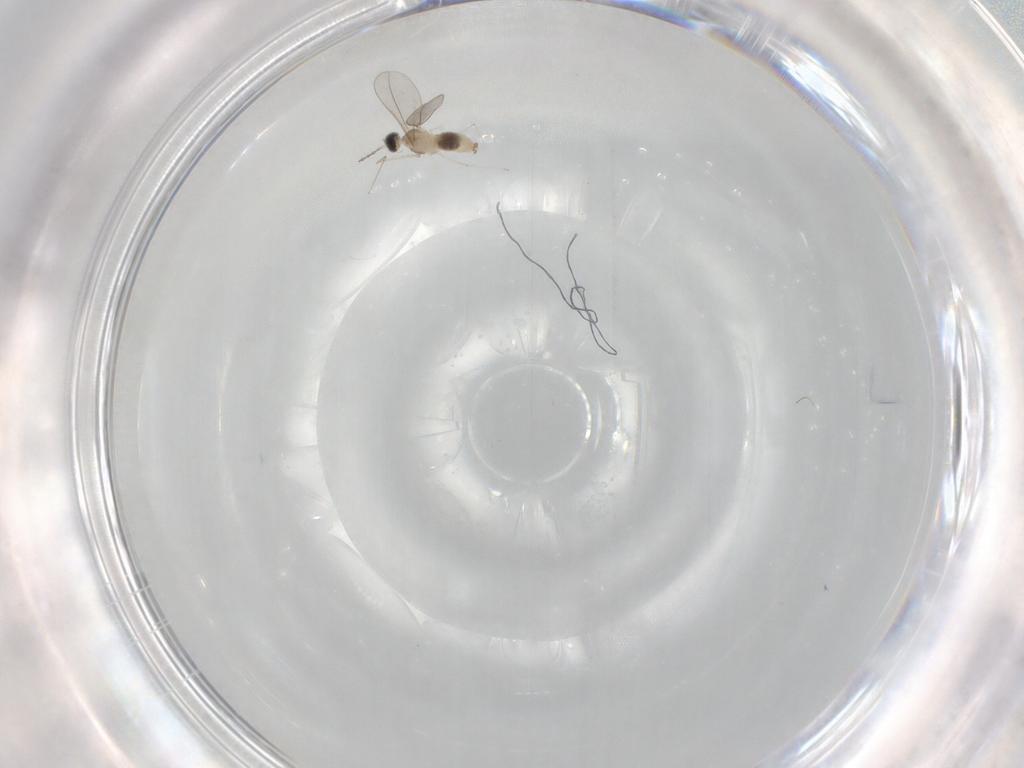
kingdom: Animalia
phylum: Arthropoda
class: Insecta
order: Diptera
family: Cecidomyiidae
